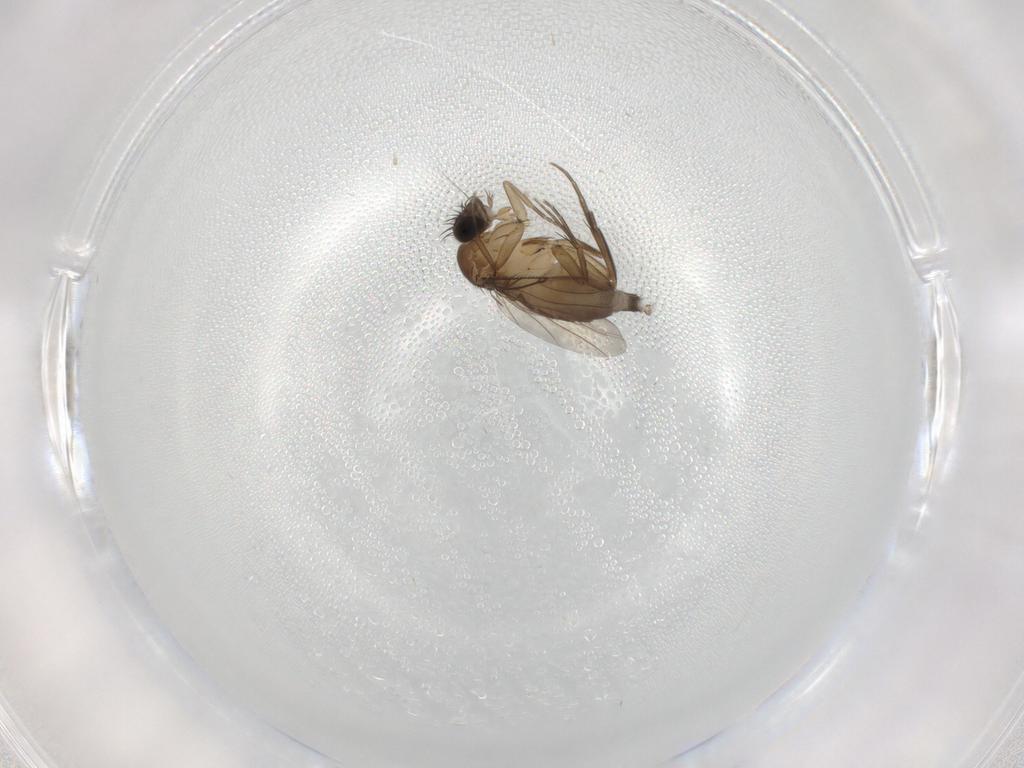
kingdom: Animalia
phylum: Arthropoda
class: Insecta
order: Diptera
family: Phoridae
